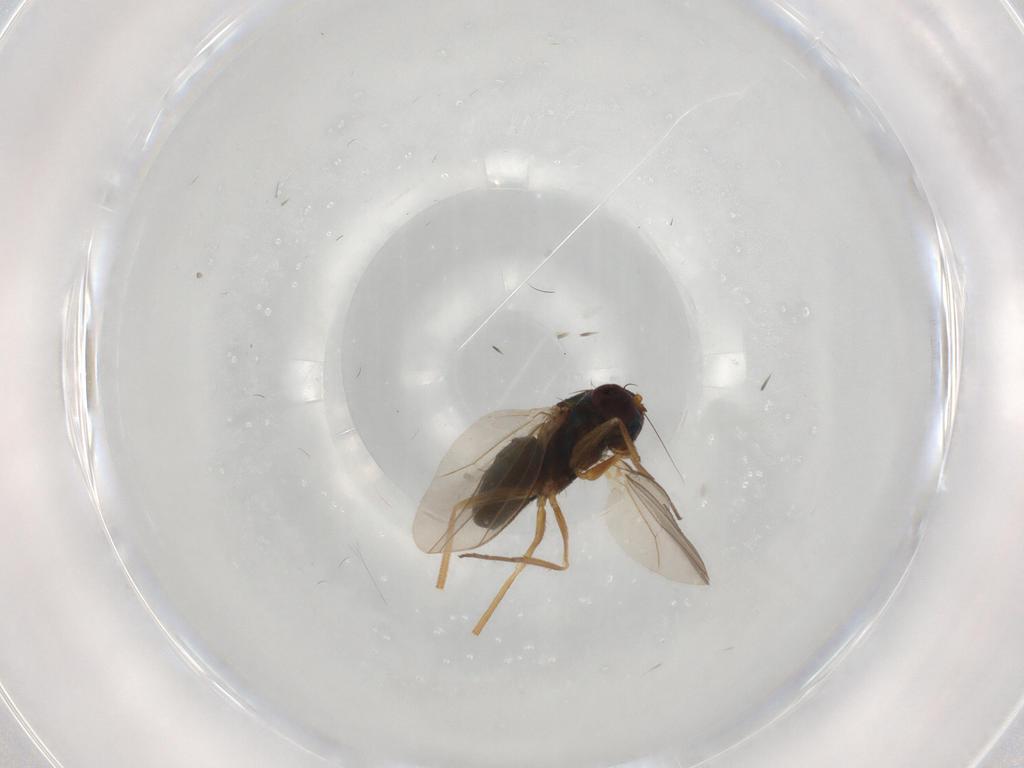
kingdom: Animalia
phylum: Arthropoda
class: Insecta
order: Diptera
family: Dolichopodidae
